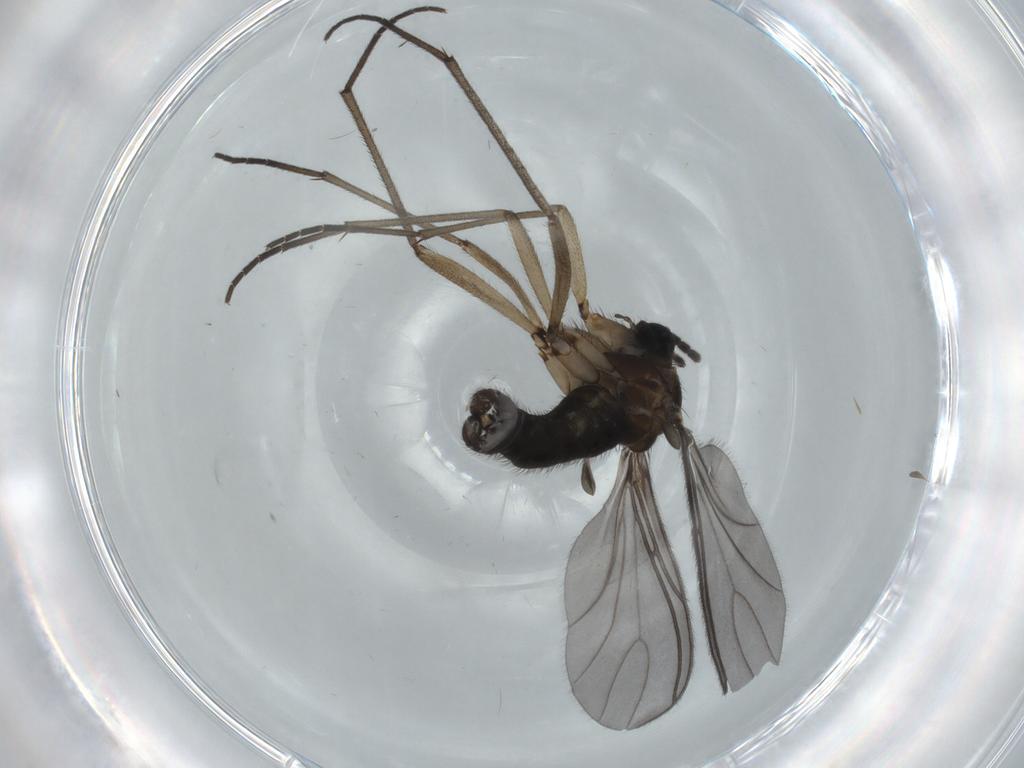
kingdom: Animalia
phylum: Arthropoda
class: Insecta
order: Diptera
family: Sciaridae
